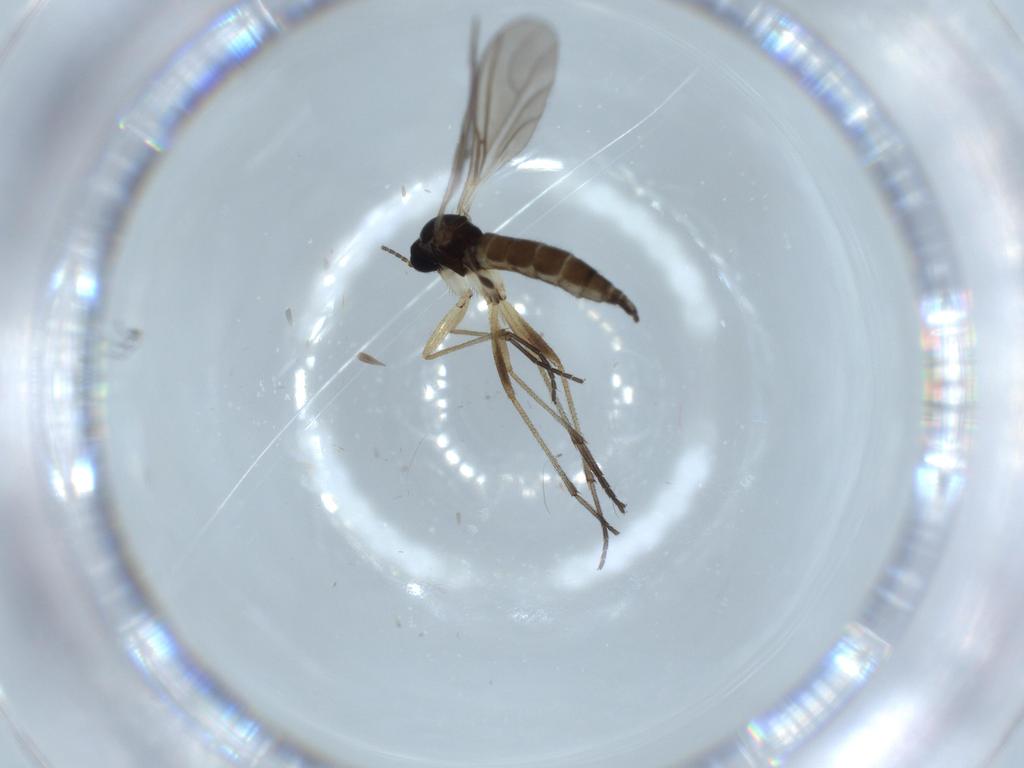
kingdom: Animalia
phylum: Arthropoda
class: Insecta
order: Diptera
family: Sciaridae
